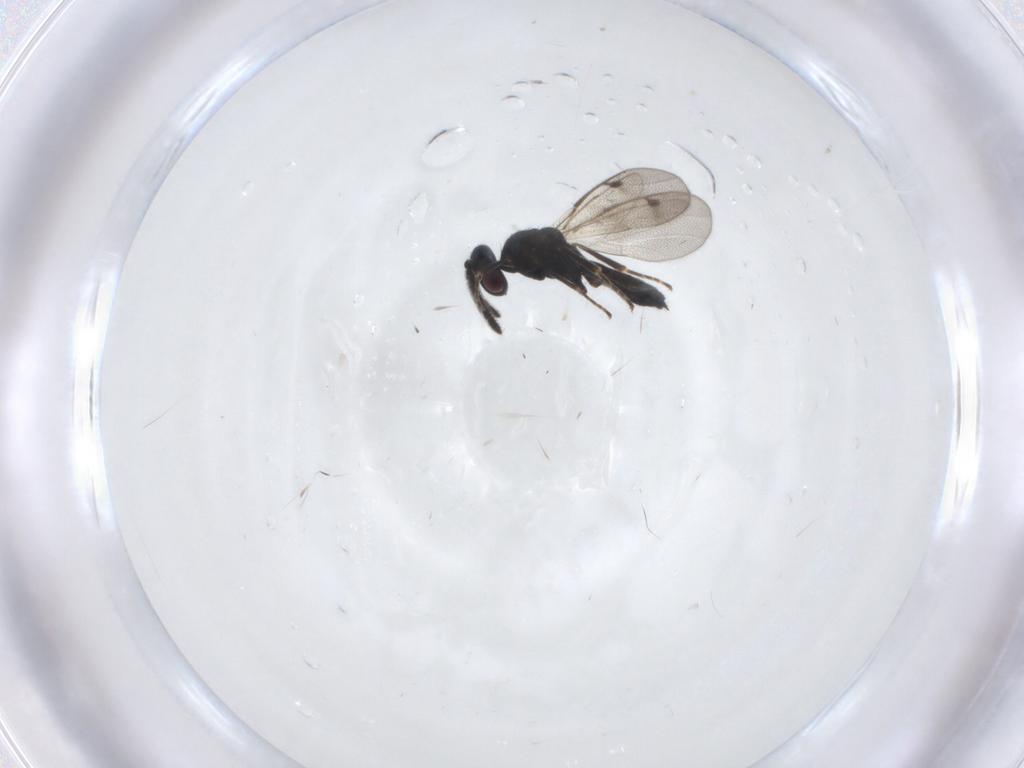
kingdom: Animalia
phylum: Arthropoda
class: Insecta
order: Hymenoptera
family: Pteromalidae
